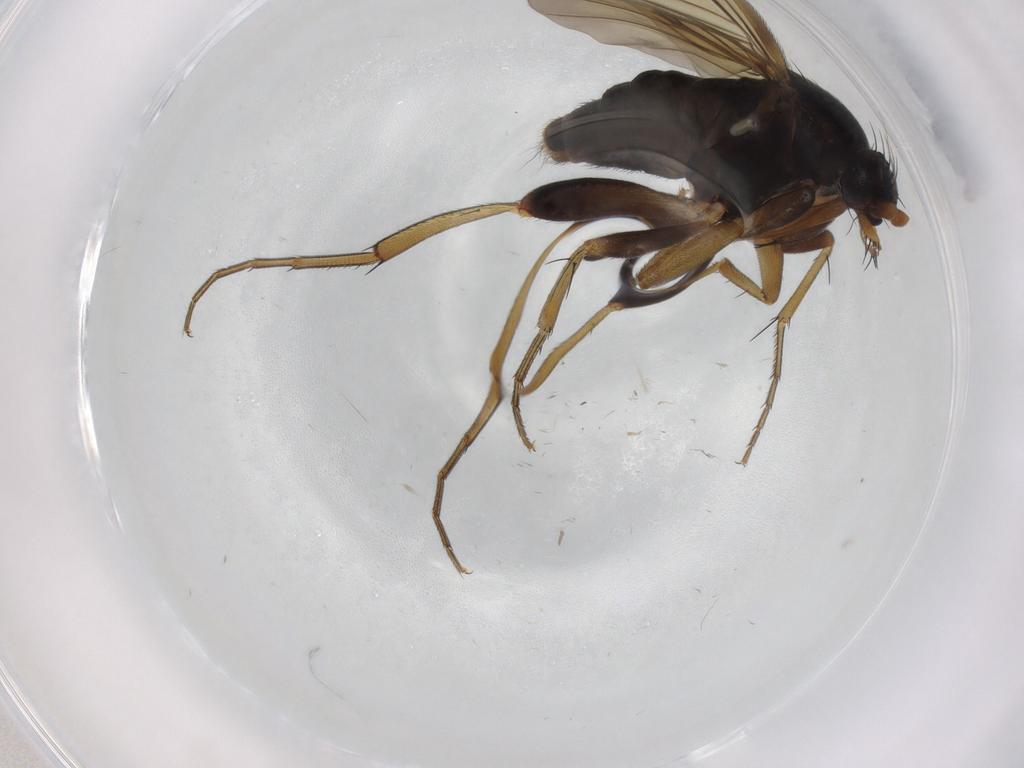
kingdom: Animalia
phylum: Arthropoda
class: Insecta
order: Diptera
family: Phoridae
